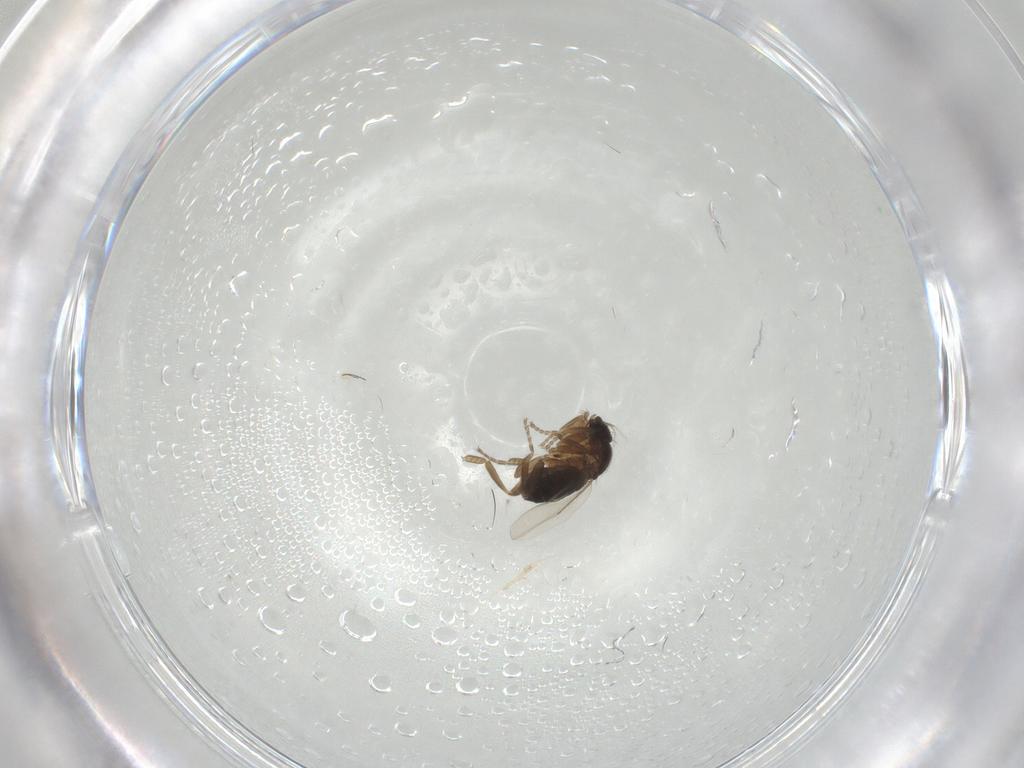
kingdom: Animalia
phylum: Arthropoda
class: Insecta
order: Diptera
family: Phoridae
